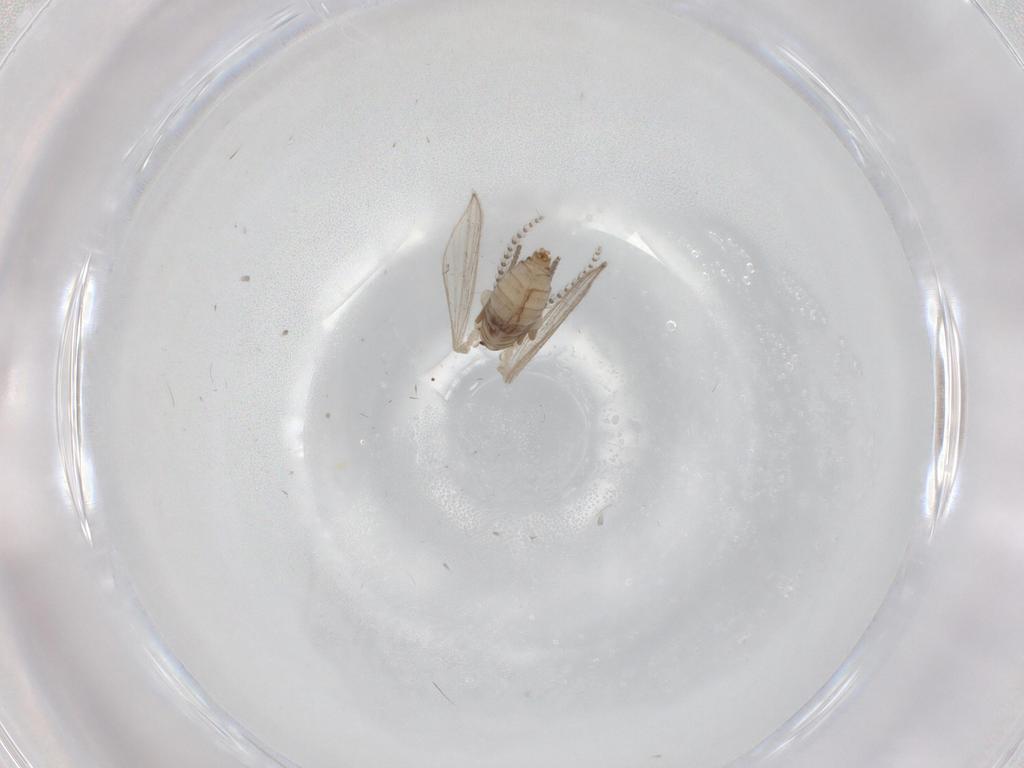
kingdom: Animalia
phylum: Arthropoda
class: Insecta
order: Diptera
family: Psychodidae
